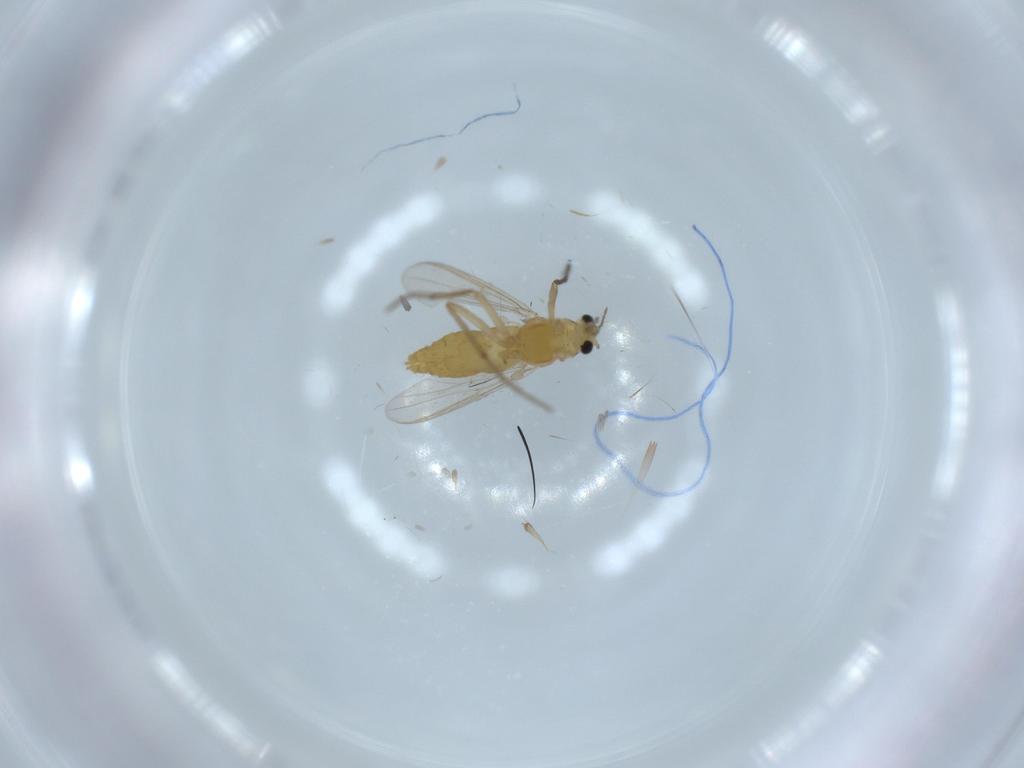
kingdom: Animalia
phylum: Arthropoda
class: Insecta
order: Diptera
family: Chironomidae
